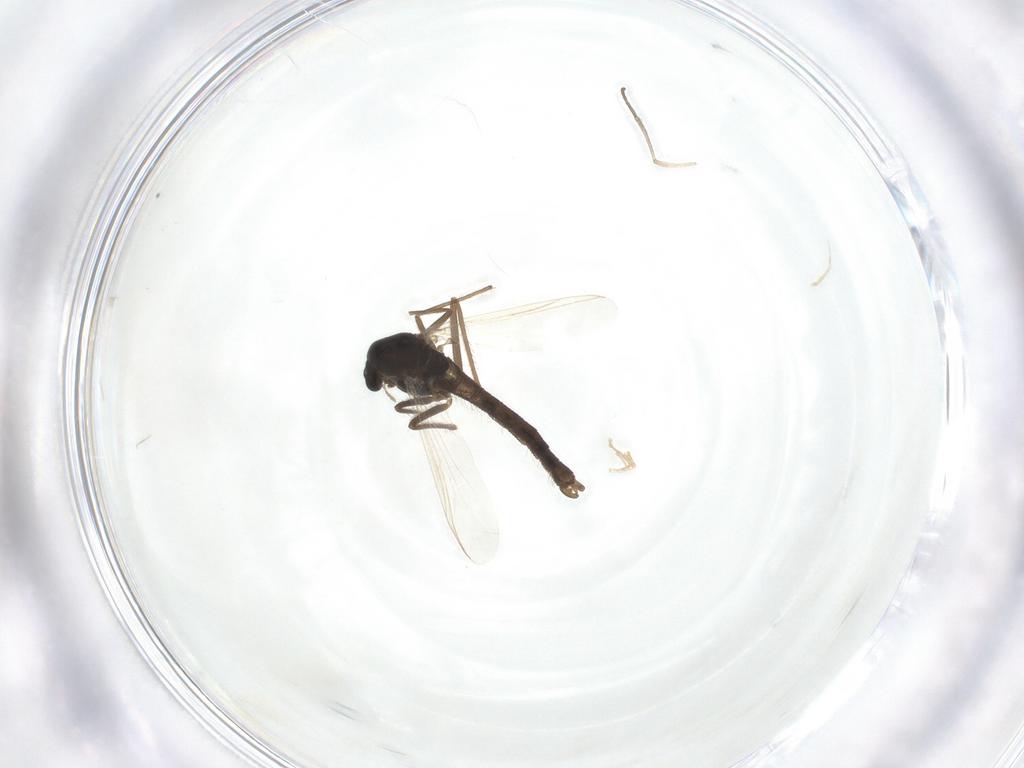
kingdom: Animalia
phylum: Arthropoda
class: Insecta
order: Diptera
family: Chironomidae
